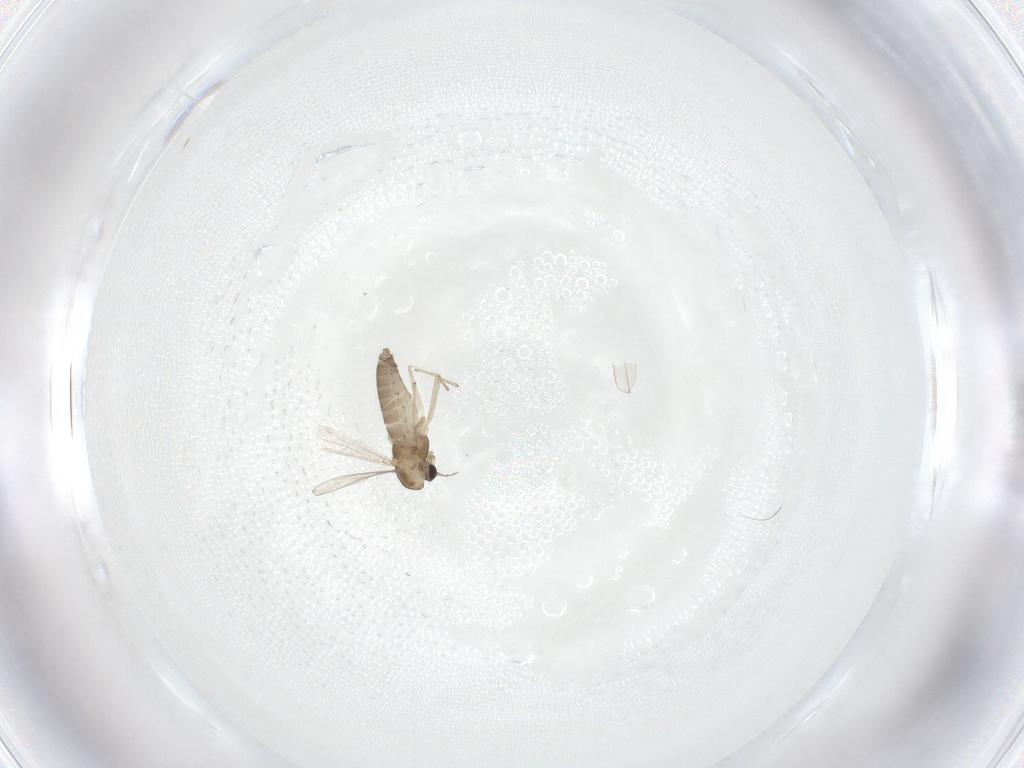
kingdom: Animalia
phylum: Arthropoda
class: Insecta
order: Diptera
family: Chironomidae
